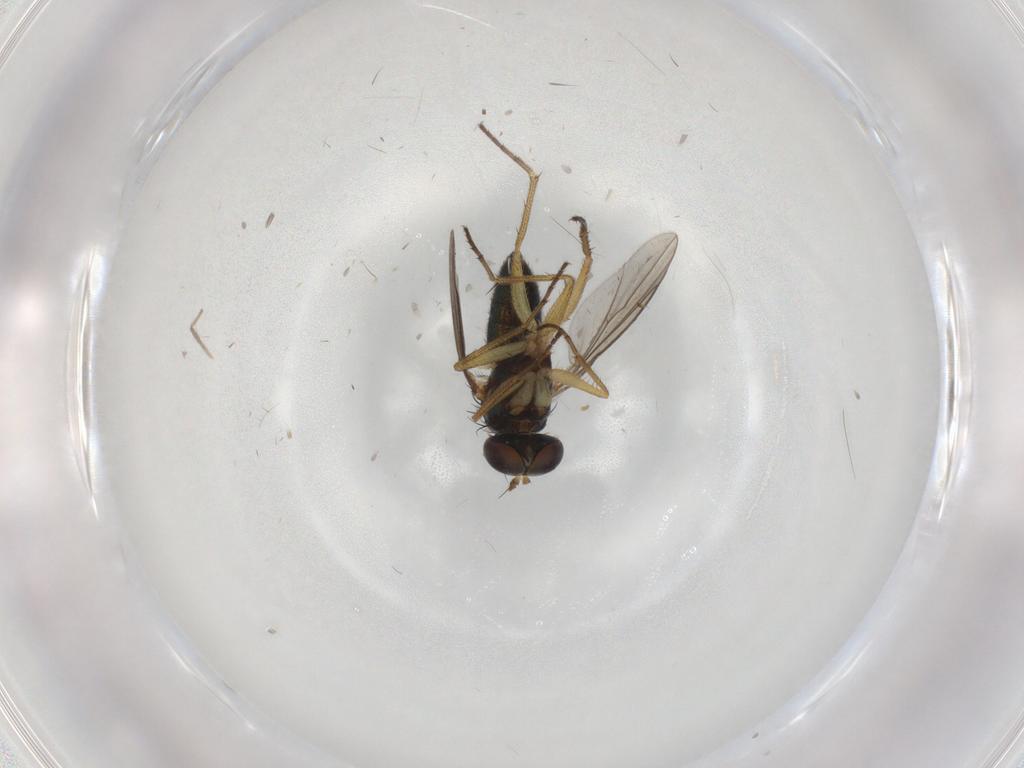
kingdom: Animalia
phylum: Arthropoda
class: Insecta
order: Diptera
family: Dolichopodidae
